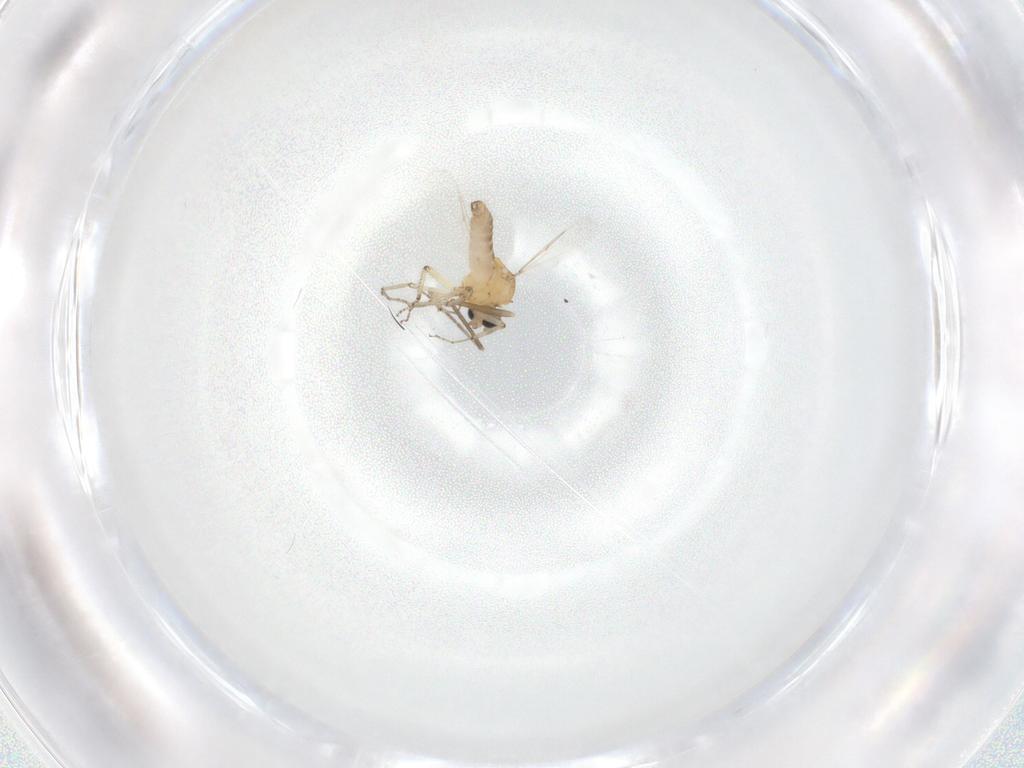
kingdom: Animalia
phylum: Arthropoda
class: Insecta
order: Diptera
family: Ceratopogonidae
